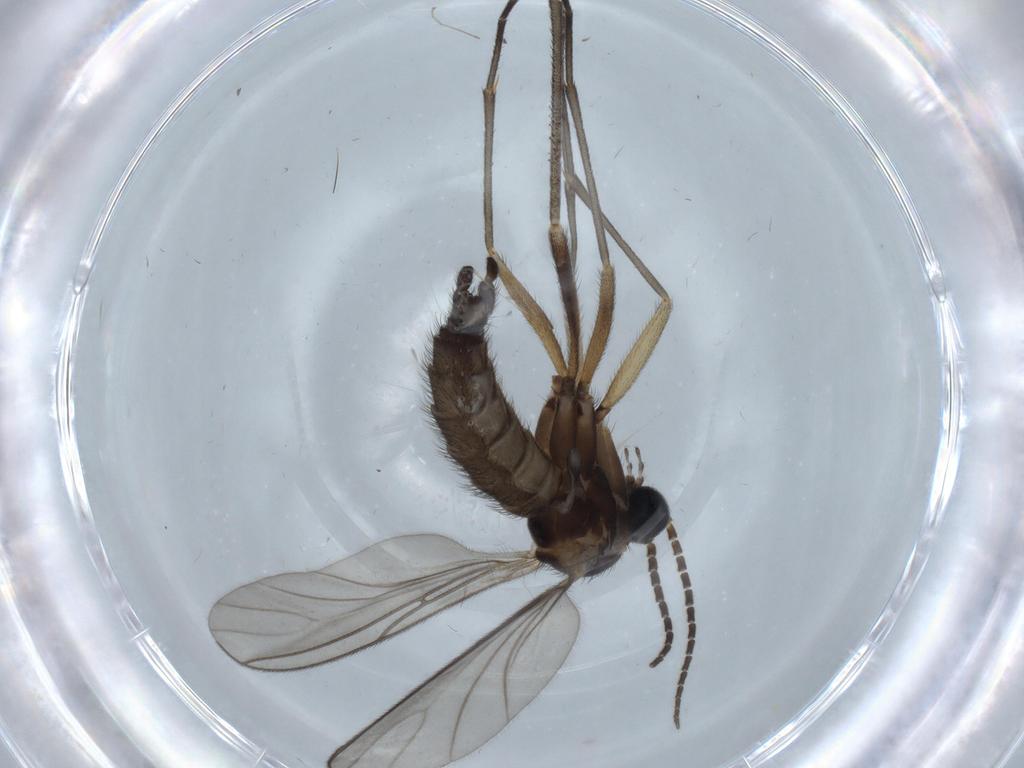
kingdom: Animalia
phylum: Arthropoda
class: Insecta
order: Diptera
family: Sciaridae
